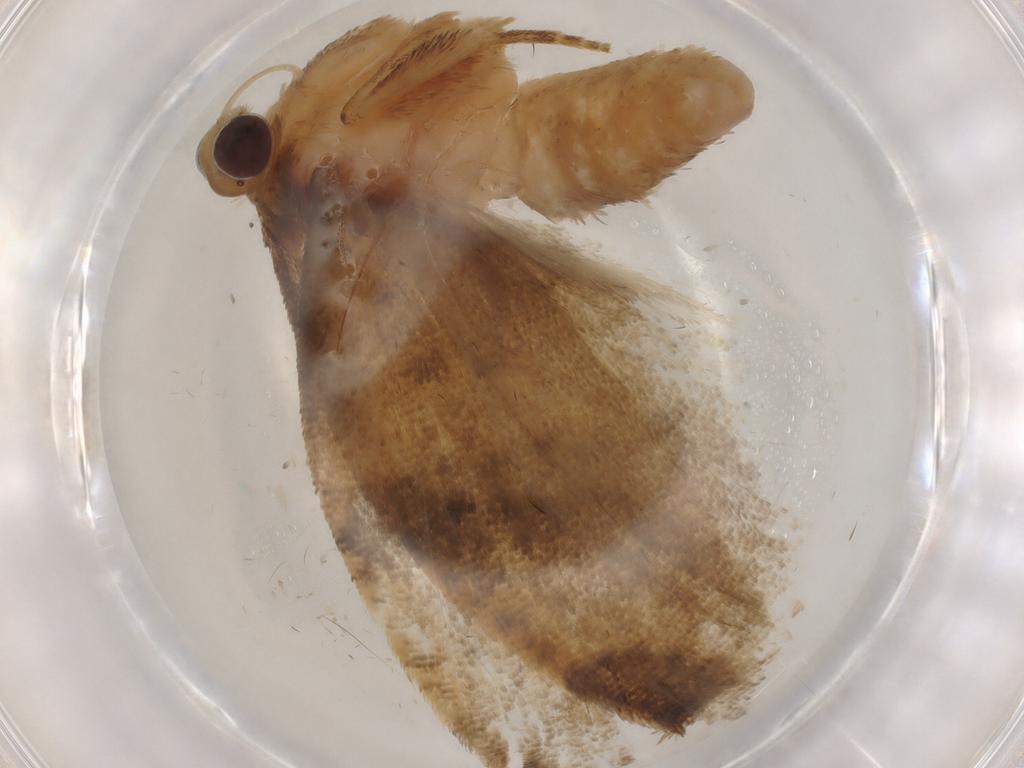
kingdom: Animalia
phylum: Arthropoda
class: Insecta
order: Lepidoptera
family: Tortricidae
